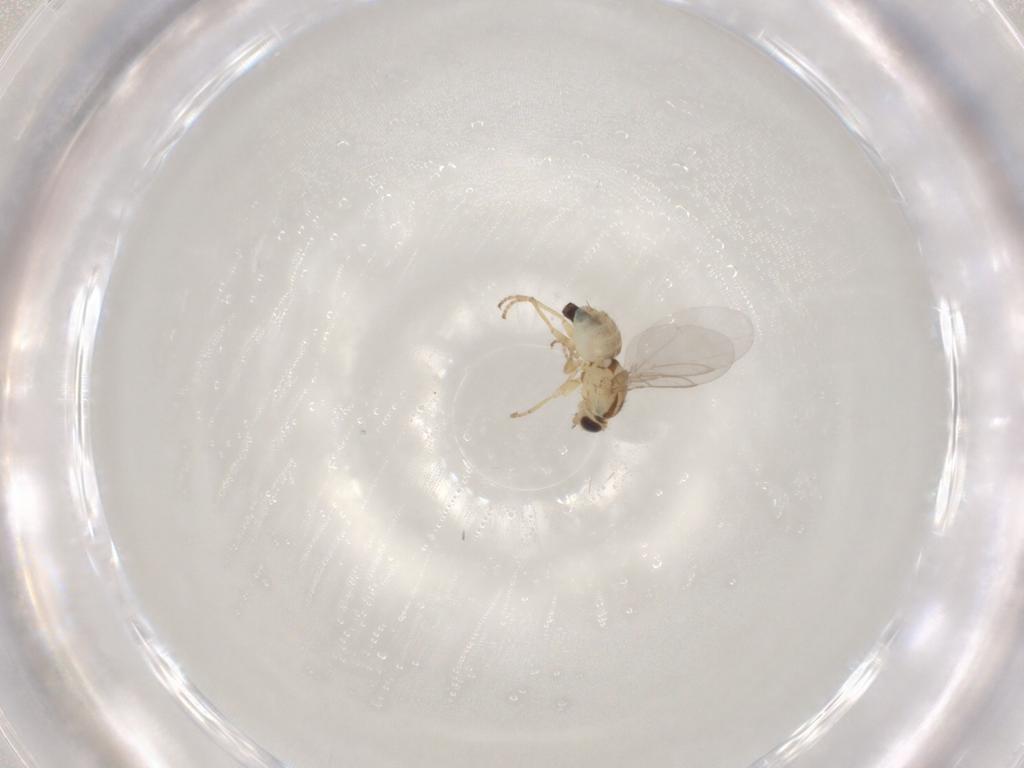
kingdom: Animalia
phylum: Arthropoda
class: Insecta
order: Diptera
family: Agromyzidae
